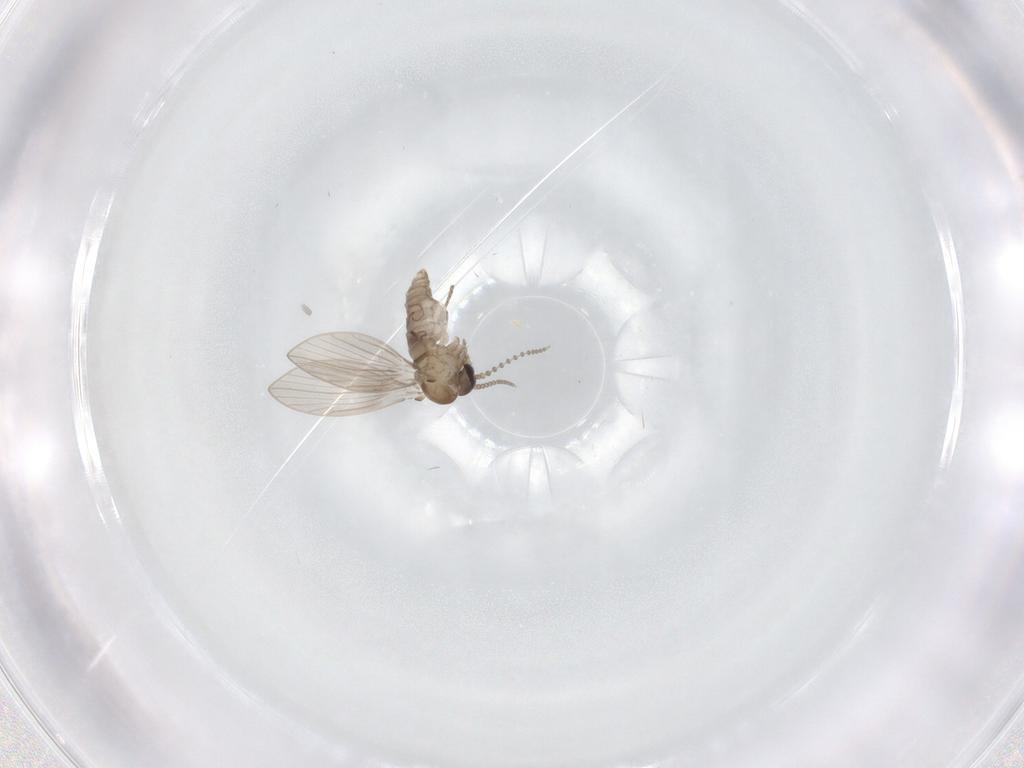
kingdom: Animalia
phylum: Arthropoda
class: Insecta
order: Diptera
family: Psychodidae
